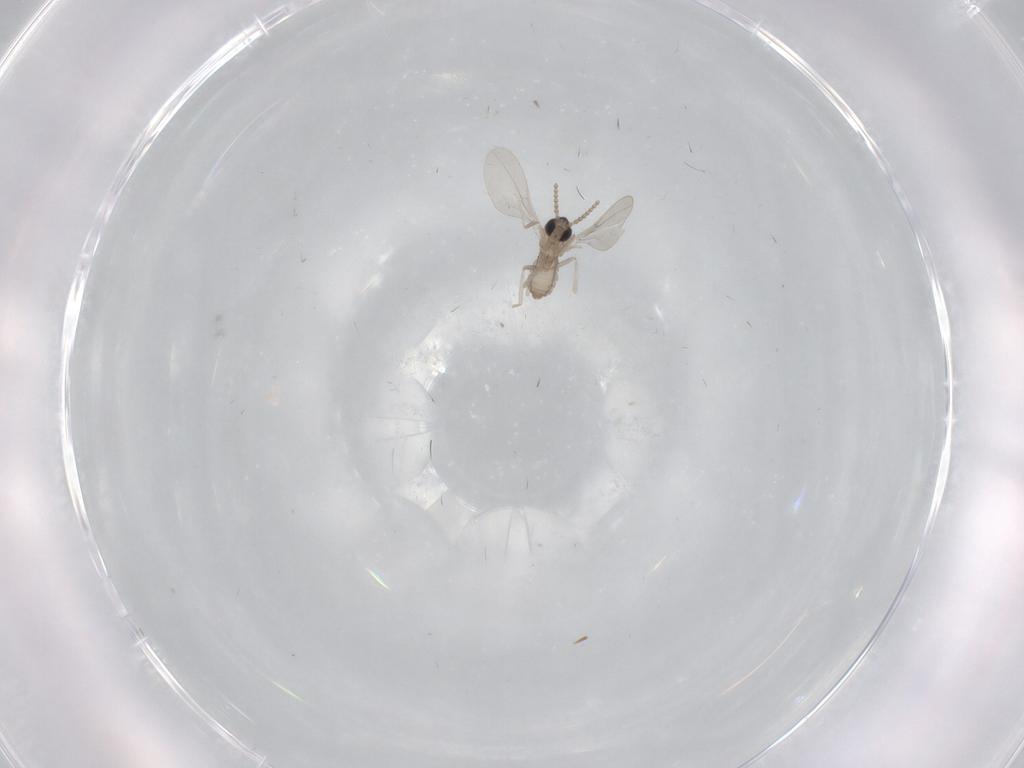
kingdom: Animalia
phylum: Arthropoda
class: Insecta
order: Diptera
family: Cecidomyiidae
